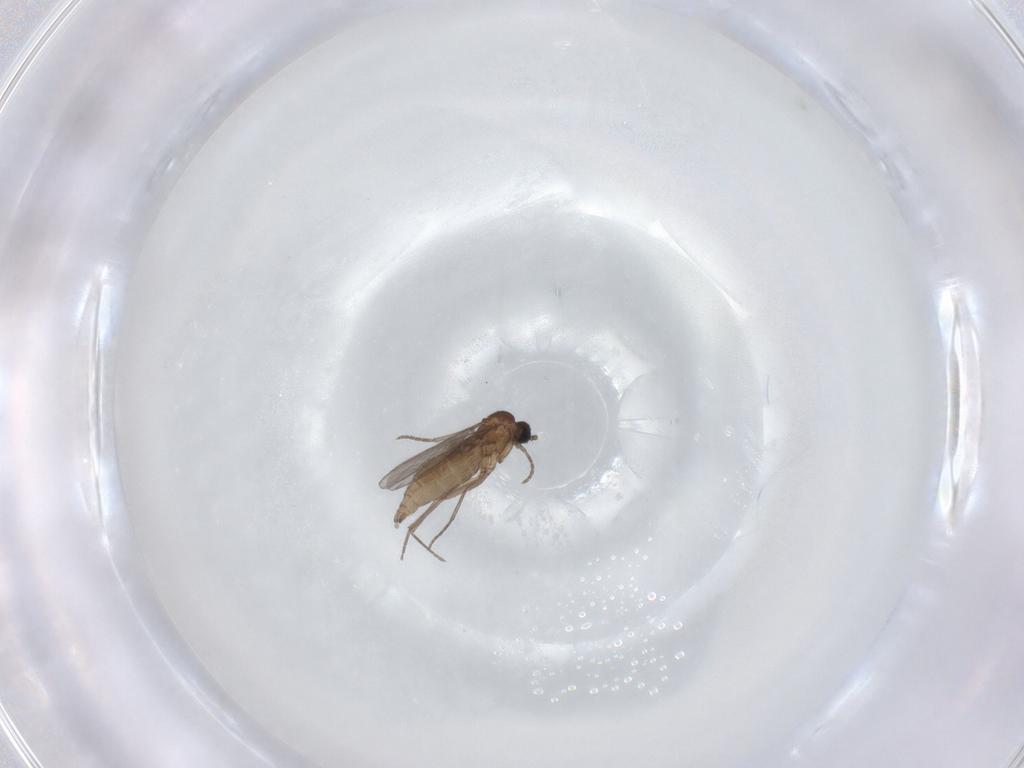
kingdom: Animalia
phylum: Arthropoda
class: Insecta
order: Diptera
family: Sciaridae
